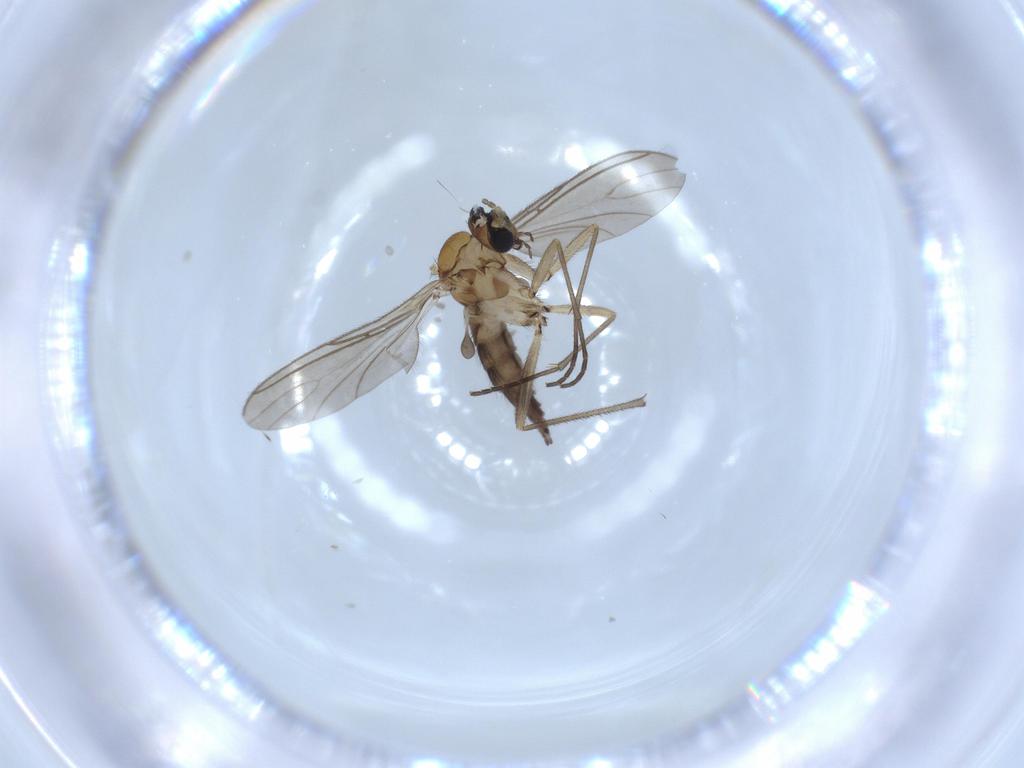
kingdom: Animalia
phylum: Arthropoda
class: Insecta
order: Diptera
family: Sciaridae
